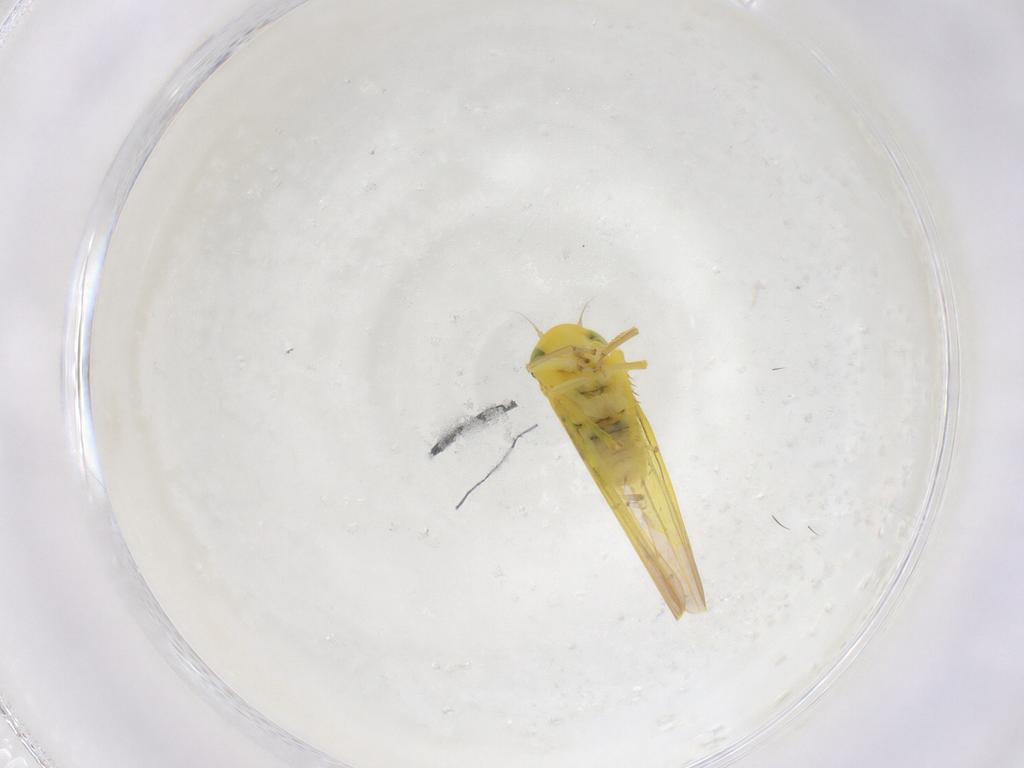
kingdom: Animalia
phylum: Arthropoda
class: Insecta
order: Hemiptera
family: Cicadellidae
